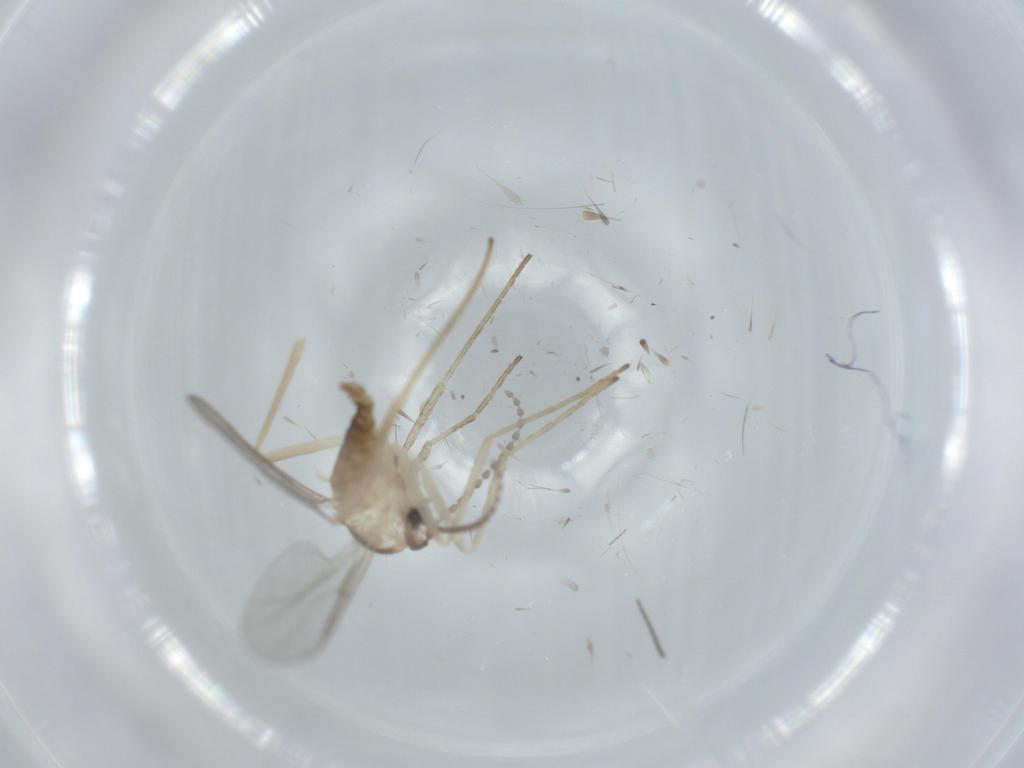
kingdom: Animalia
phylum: Arthropoda
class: Insecta
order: Diptera
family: Cecidomyiidae
